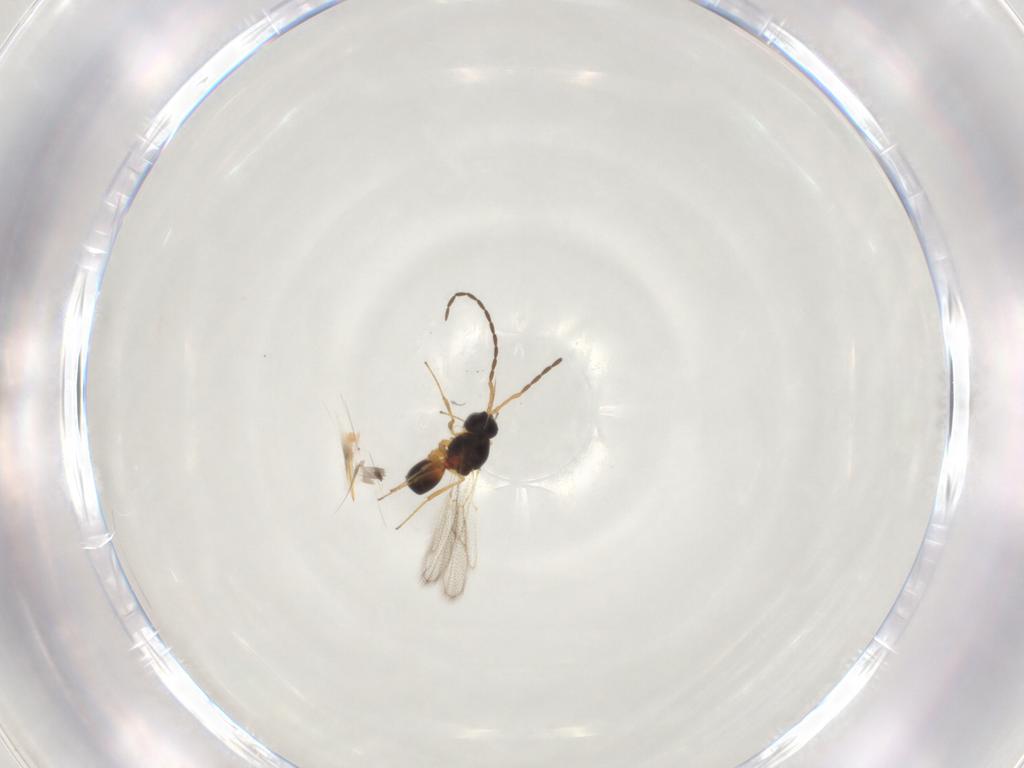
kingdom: Animalia
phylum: Arthropoda
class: Insecta
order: Hymenoptera
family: Figitidae
